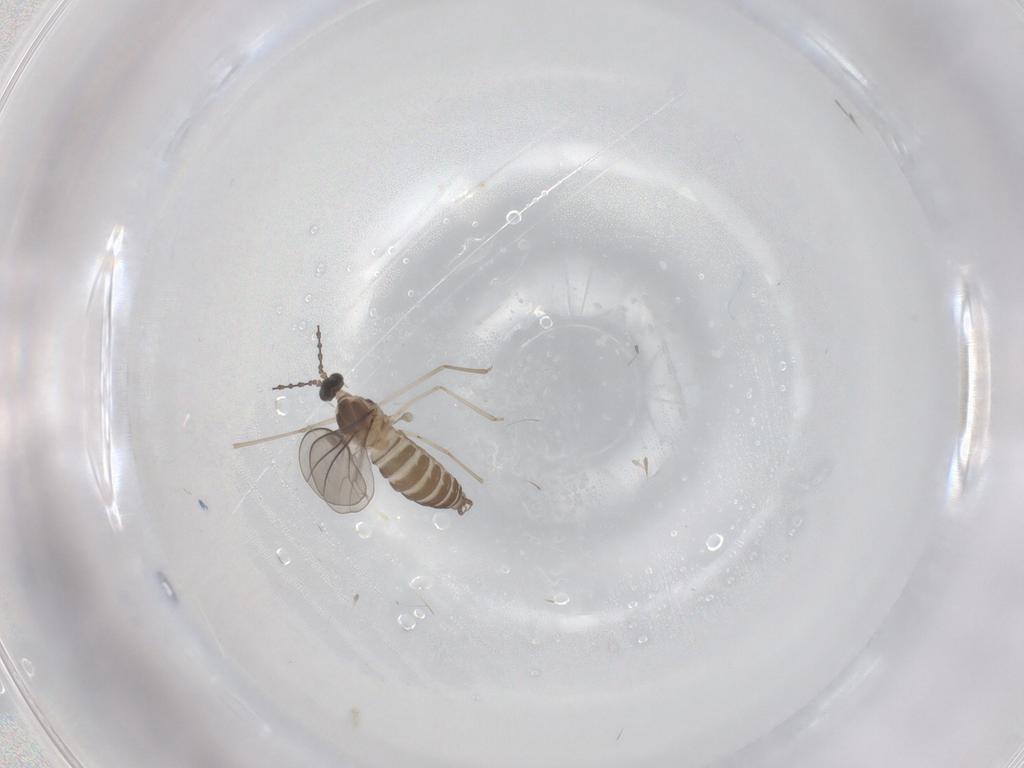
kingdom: Animalia
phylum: Arthropoda
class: Insecta
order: Diptera
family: Cecidomyiidae
